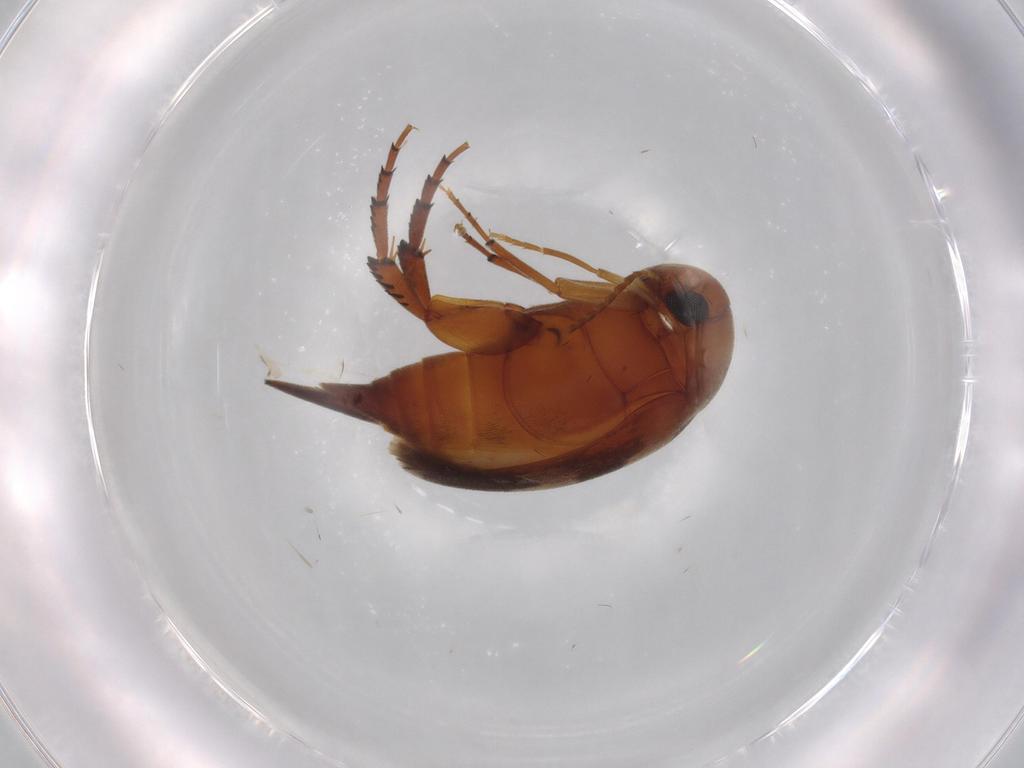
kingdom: Animalia
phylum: Arthropoda
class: Insecta
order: Coleoptera
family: Mordellidae
